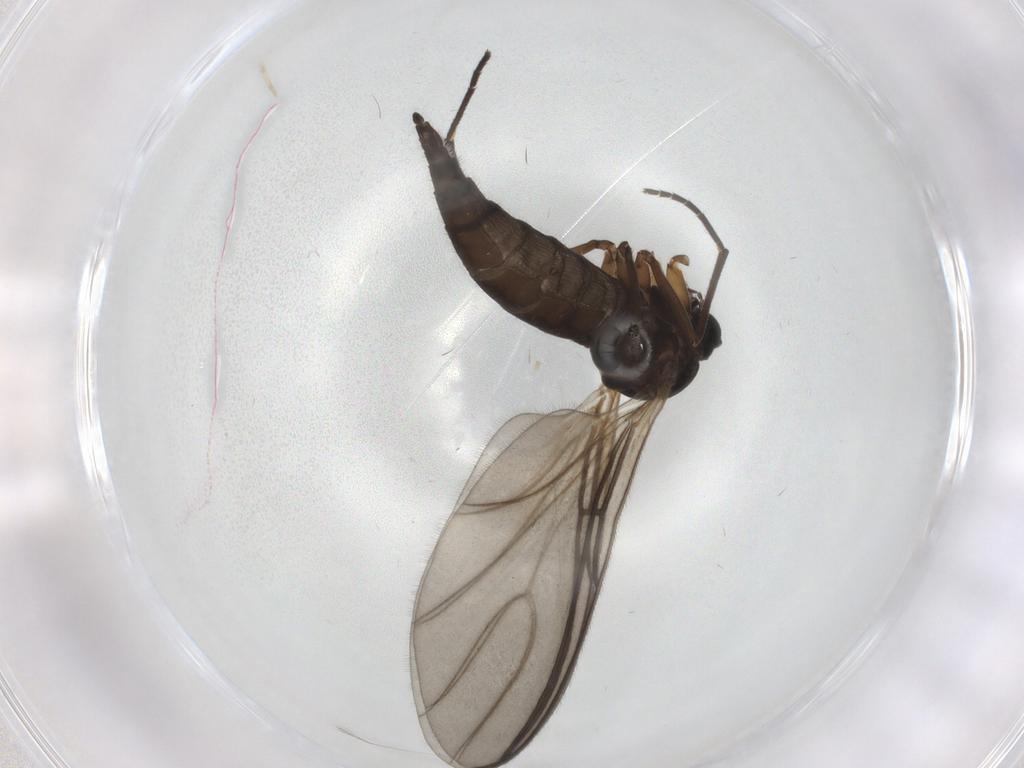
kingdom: Animalia
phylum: Arthropoda
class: Insecta
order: Diptera
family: Sciaridae
